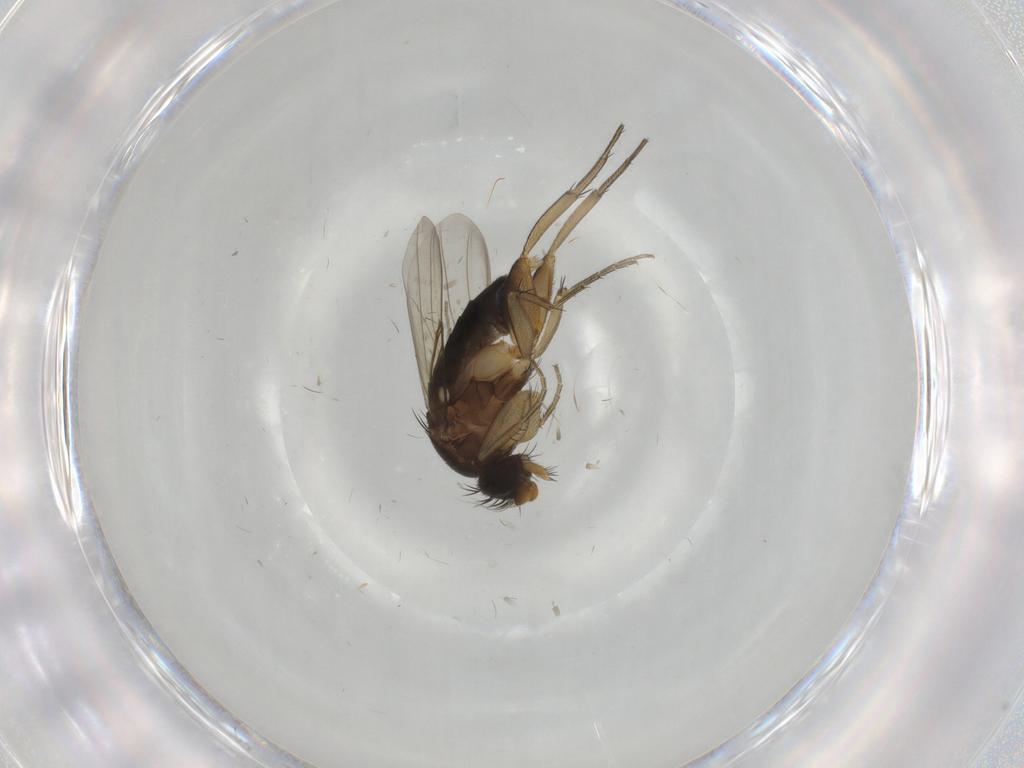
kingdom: Animalia
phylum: Arthropoda
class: Insecta
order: Diptera
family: Phoridae
